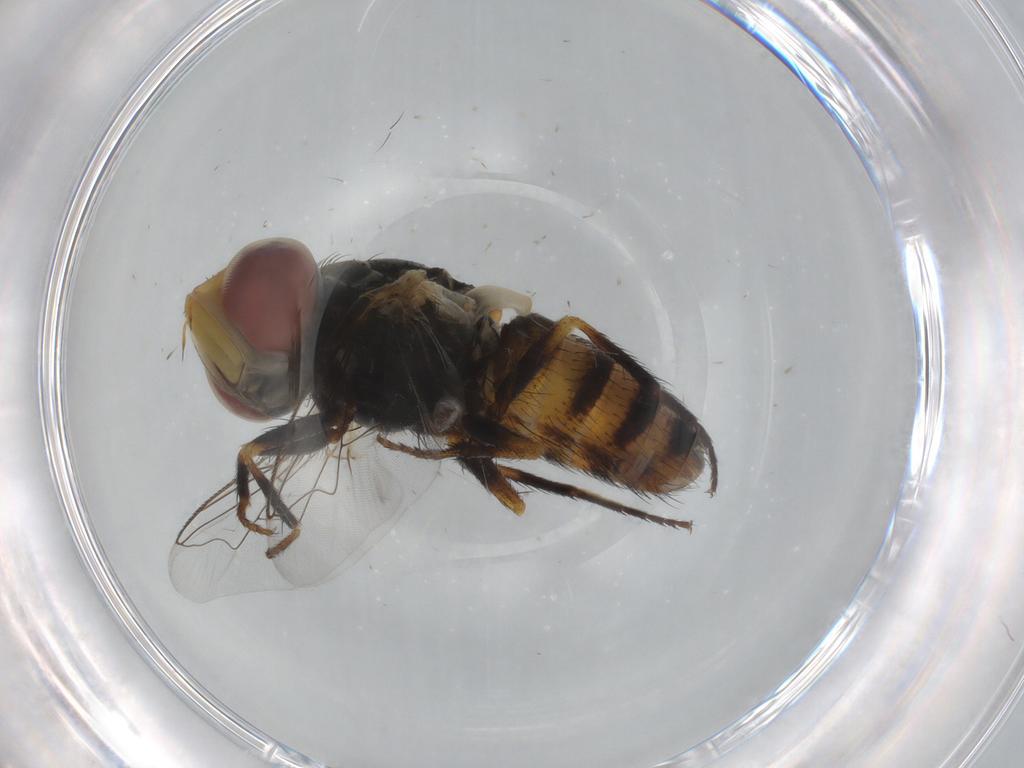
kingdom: Animalia
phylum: Arthropoda
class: Insecta
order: Diptera
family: Dolichopodidae
